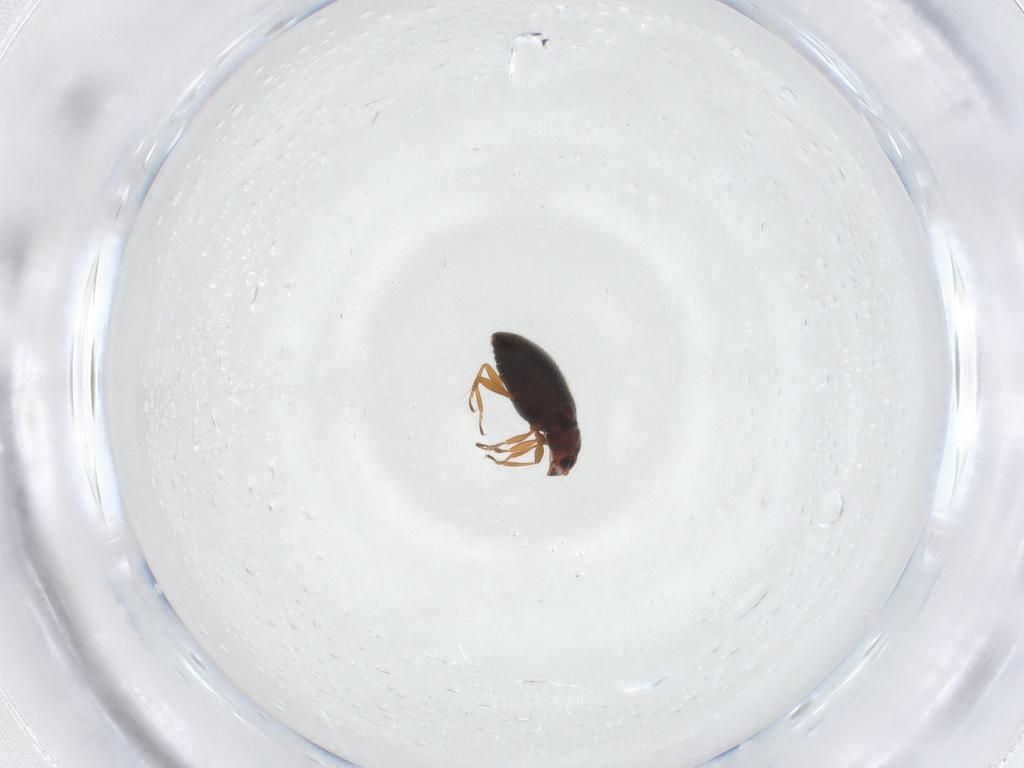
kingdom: Animalia
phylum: Arthropoda
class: Insecta
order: Coleoptera
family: Latridiidae
